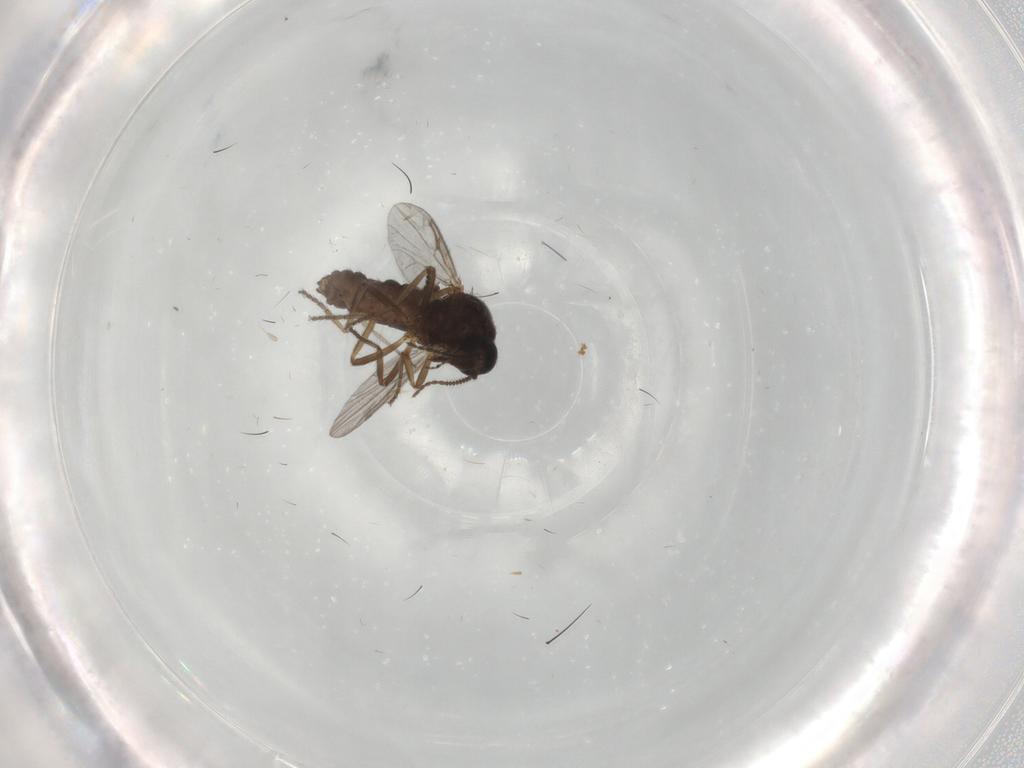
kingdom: Animalia
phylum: Arthropoda
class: Insecta
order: Diptera
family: Ceratopogonidae
